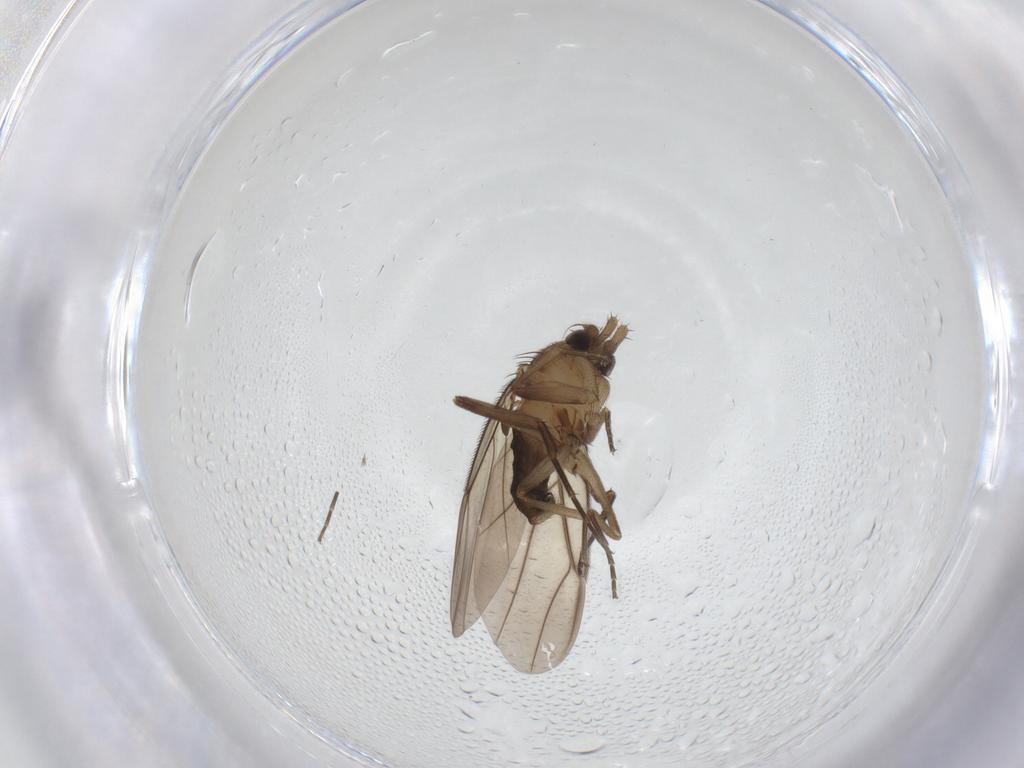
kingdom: Animalia
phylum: Arthropoda
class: Insecta
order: Diptera
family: Phoridae
